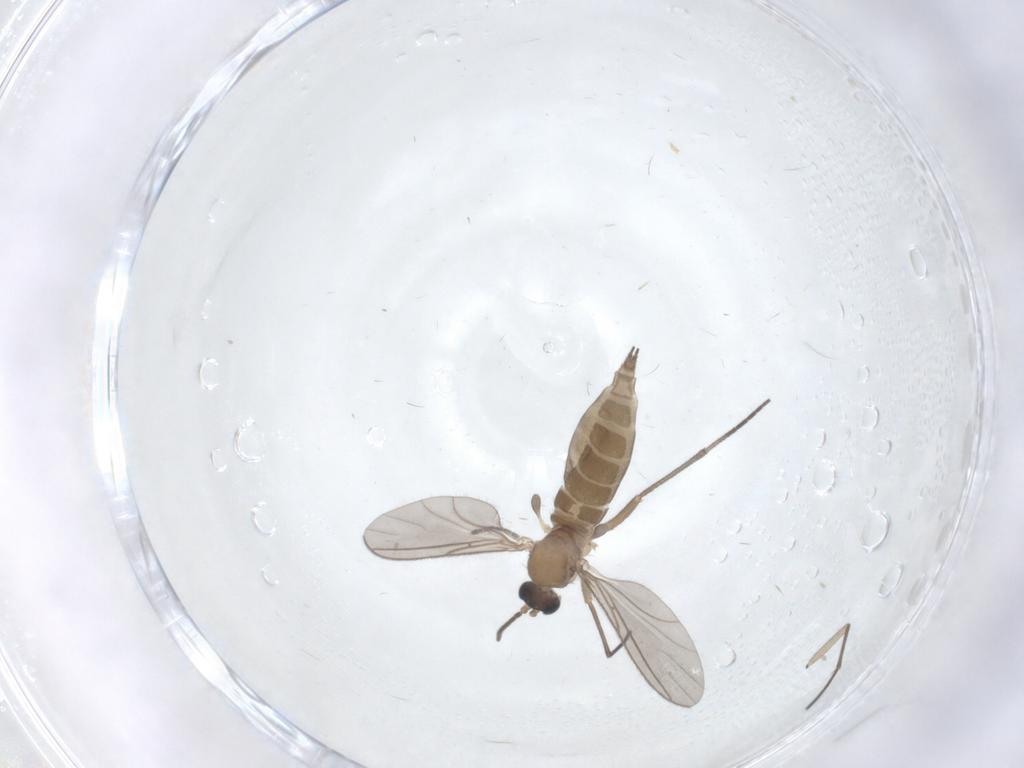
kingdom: Animalia
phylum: Arthropoda
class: Insecta
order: Diptera
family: Sciaridae
